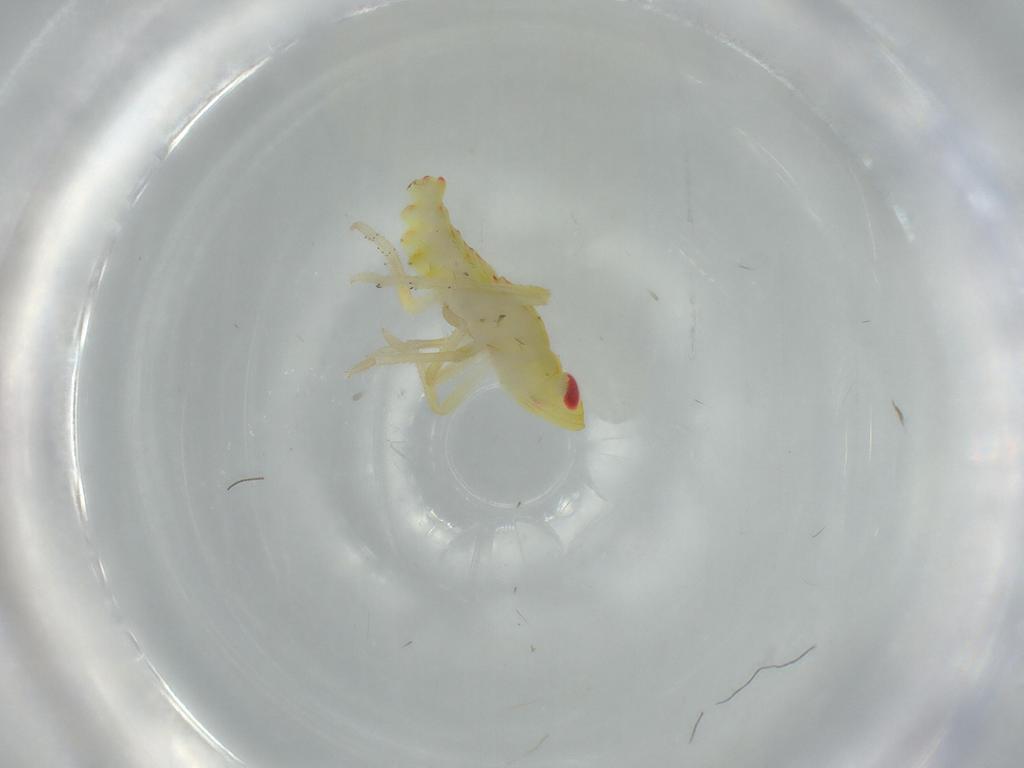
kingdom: Animalia
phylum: Arthropoda
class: Insecta
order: Hemiptera
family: Tropiduchidae
